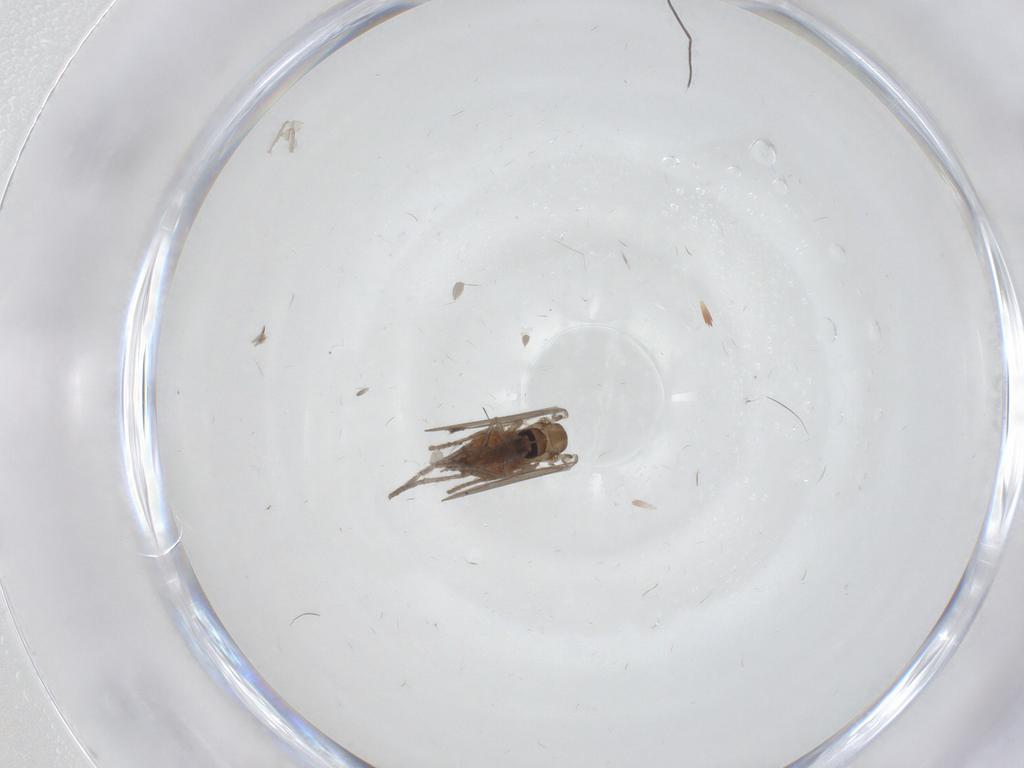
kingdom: Animalia
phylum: Arthropoda
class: Insecta
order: Diptera
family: Psychodidae
